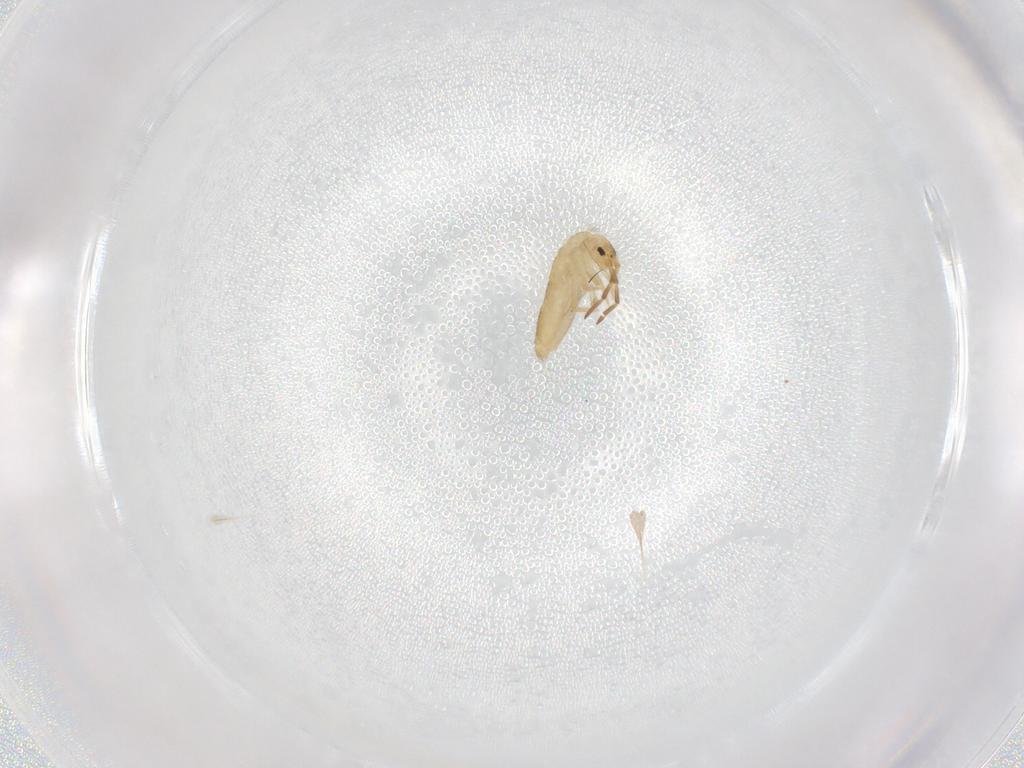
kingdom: Animalia
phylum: Arthropoda
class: Collembola
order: Entomobryomorpha
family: Entomobryidae
